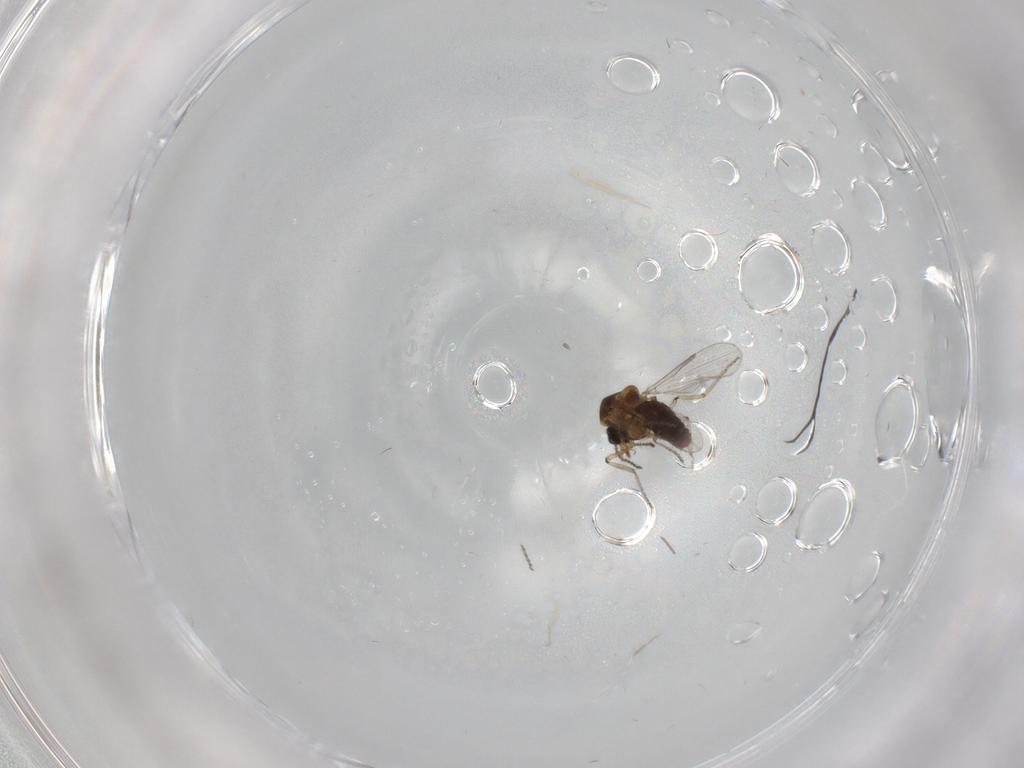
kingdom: Animalia
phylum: Arthropoda
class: Insecta
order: Diptera
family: Ceratopogonidae
